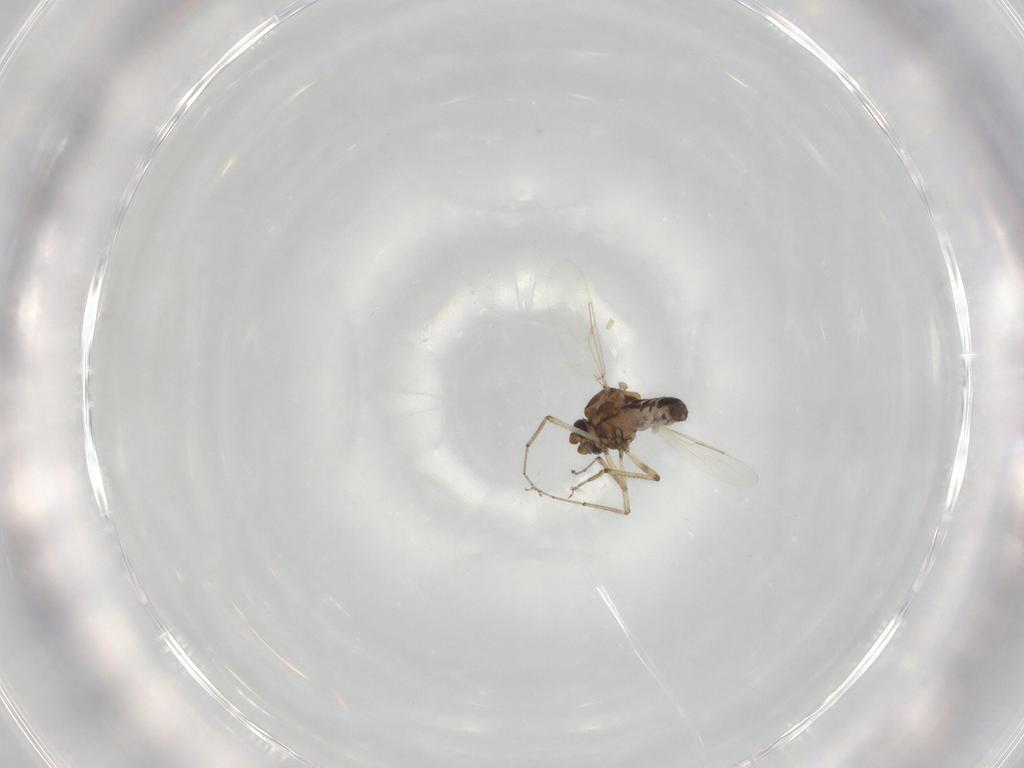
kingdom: Animalia
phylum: Arthropoda
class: Insecta
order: Diptera
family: Ceratopogonidae
